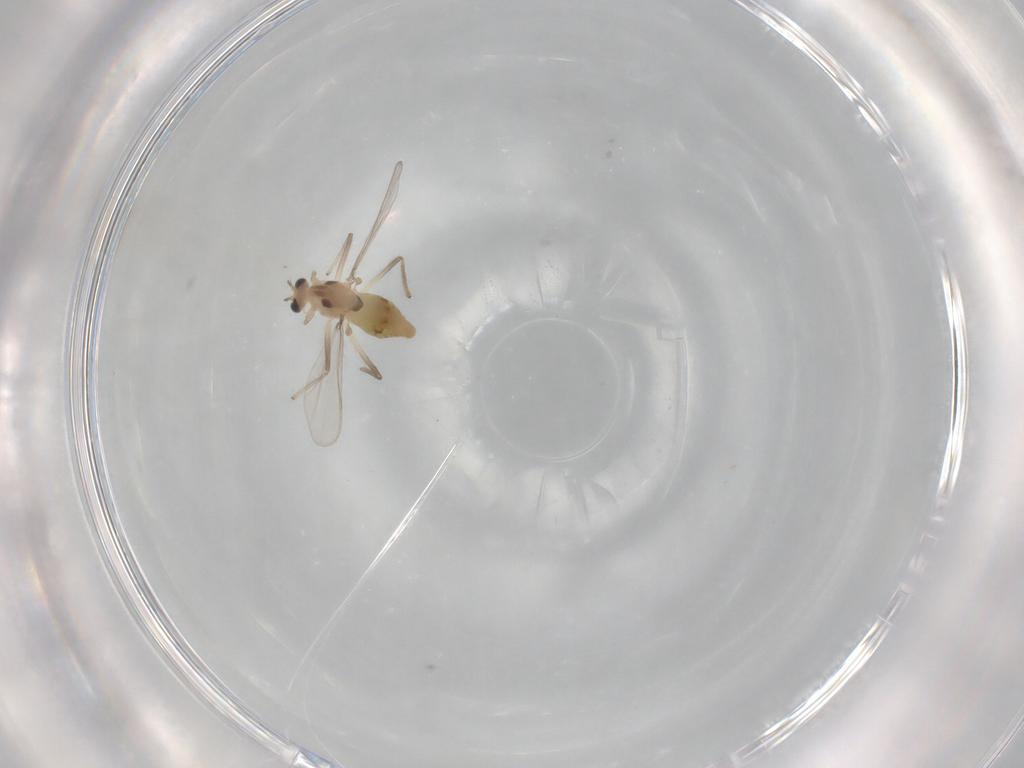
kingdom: Animalia
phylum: Arthropoda
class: Insecta
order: Diptera
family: Chironomidae
